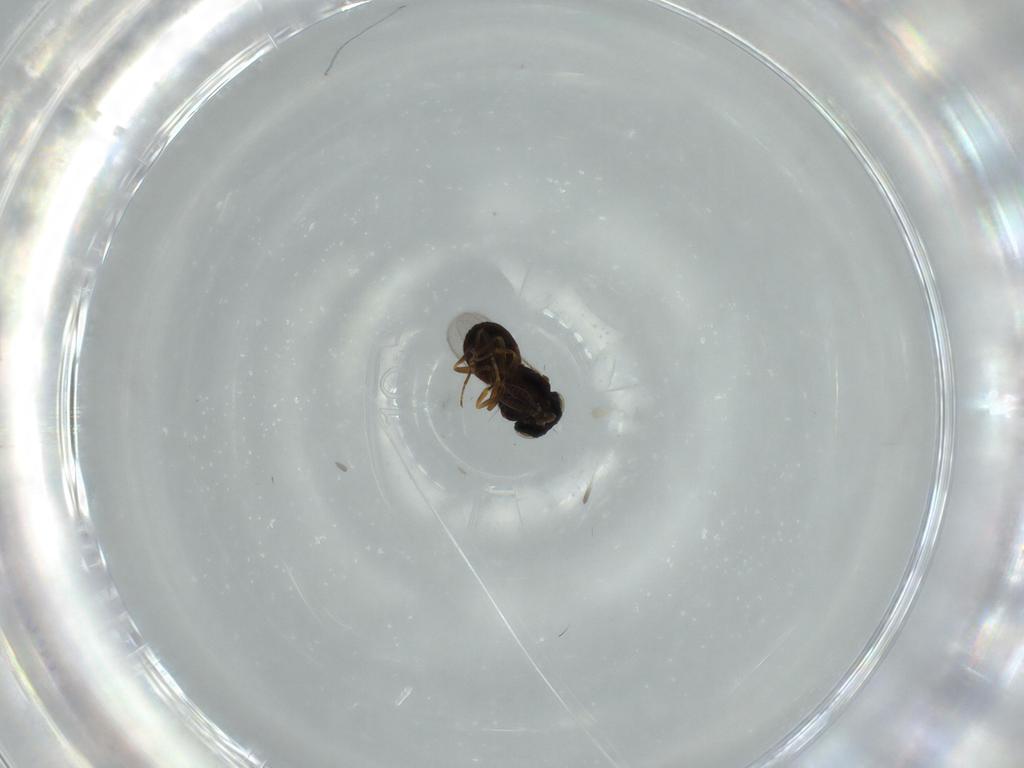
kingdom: Animalia
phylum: Arthropoda
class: Insecta
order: Hymenoptera
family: Scelionidae
